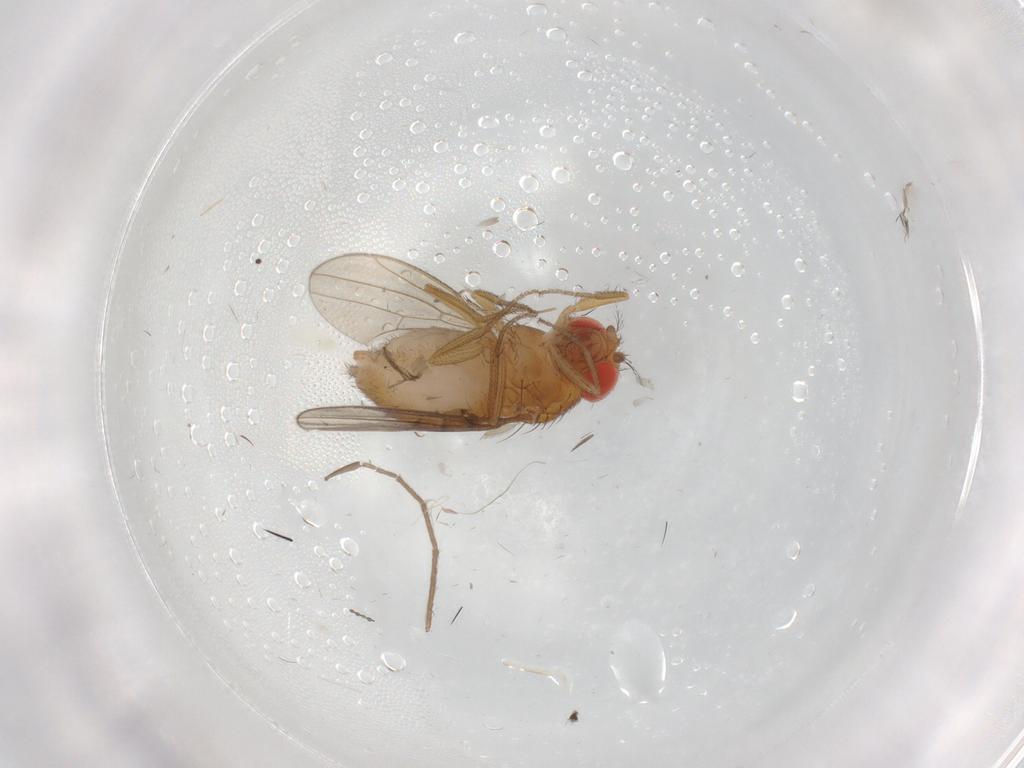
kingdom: Animalia
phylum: Arthropoda
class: Insecta
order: Diptera
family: Drosophilidae
